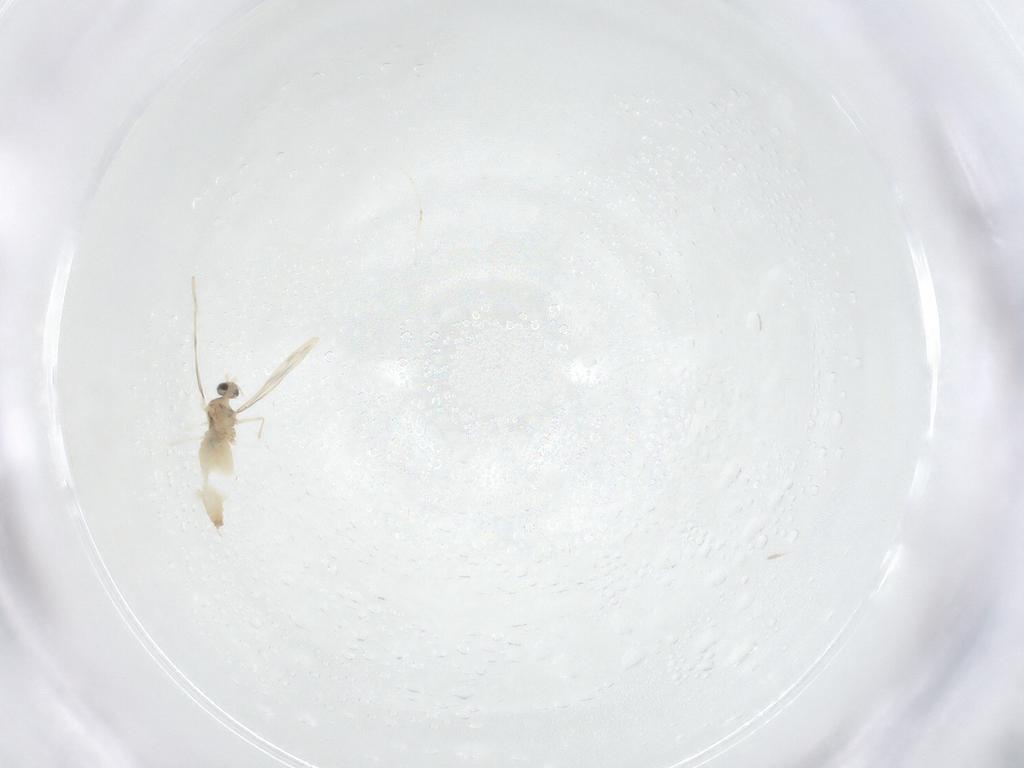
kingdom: Animalia
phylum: Arthropoda
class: Insecta
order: Diptera
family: Cecidomyiidae
